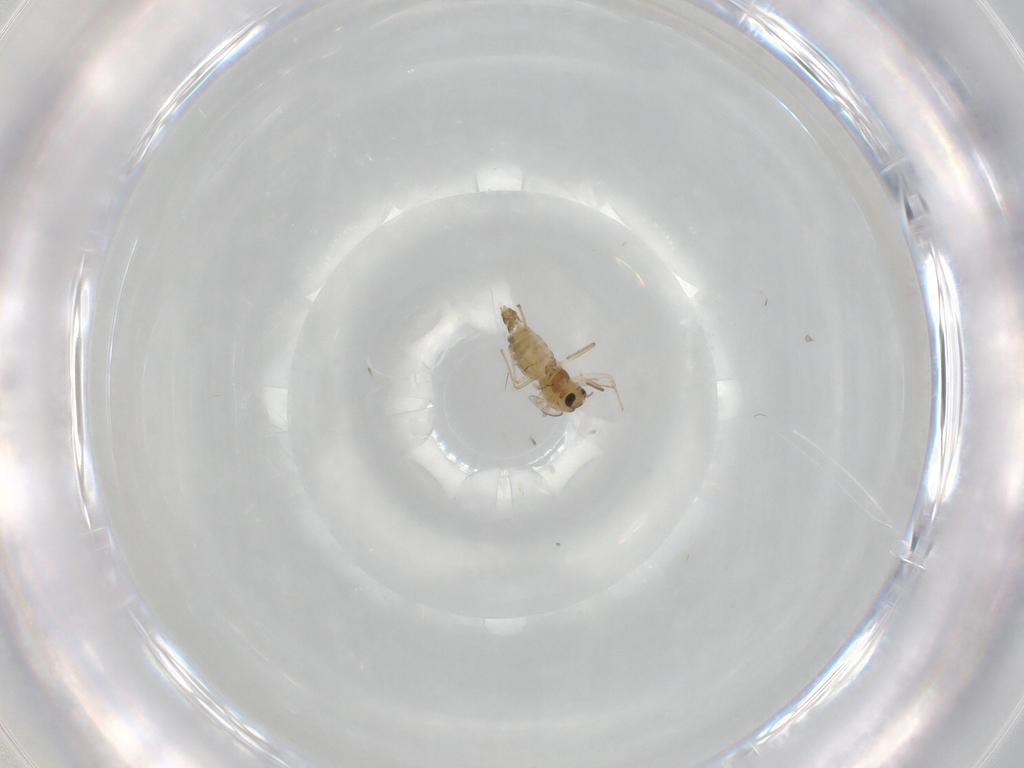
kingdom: Animalia
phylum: Arthropoda
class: Insecta
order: Diptera
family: Chironomidae
